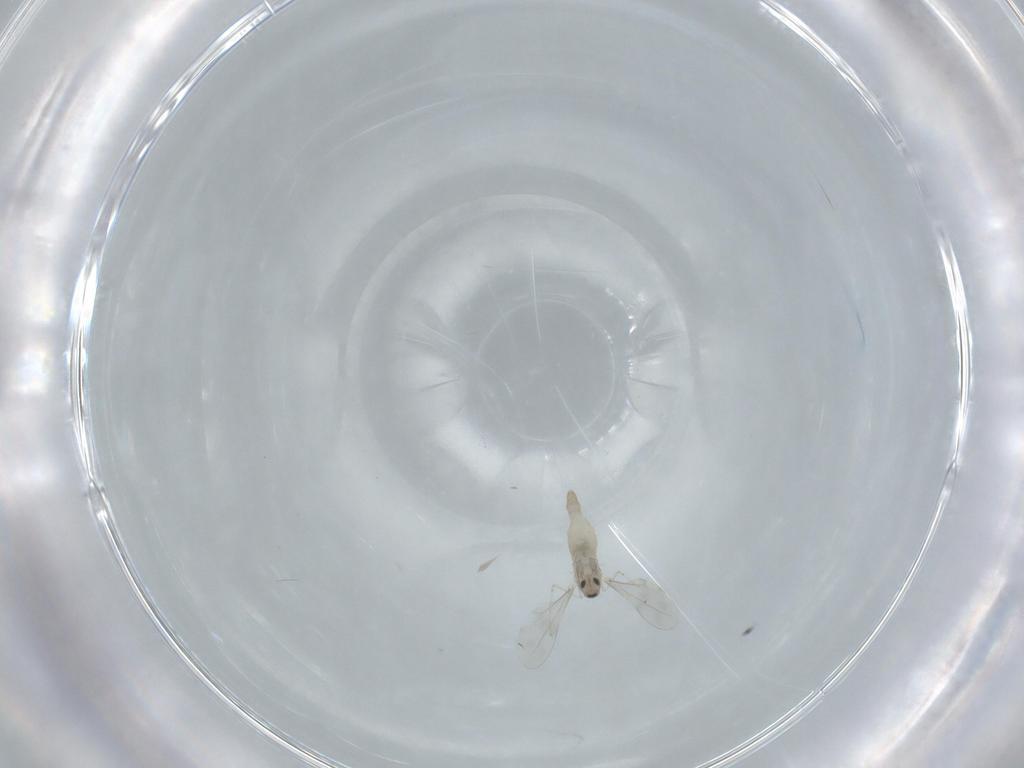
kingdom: Animalia
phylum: Arthropoda
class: Insecta
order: Diptera
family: Cecidomyiidae
